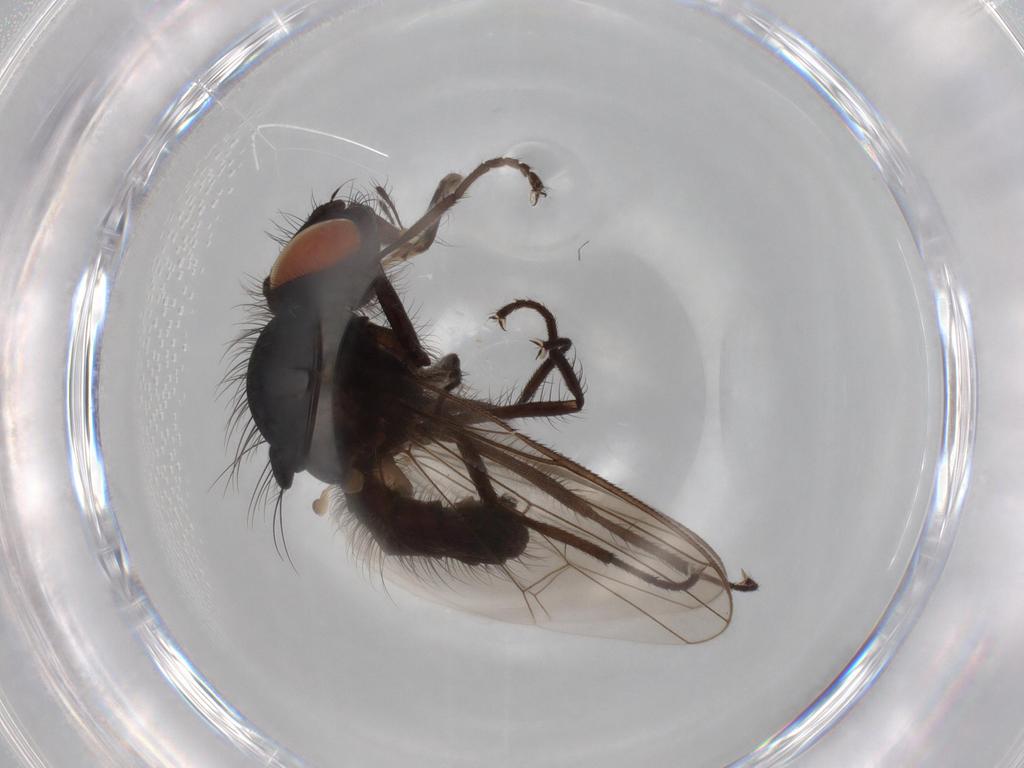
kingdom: Animalia
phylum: Arthropoda
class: Insecta
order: Diptera
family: Anthomyiidae
